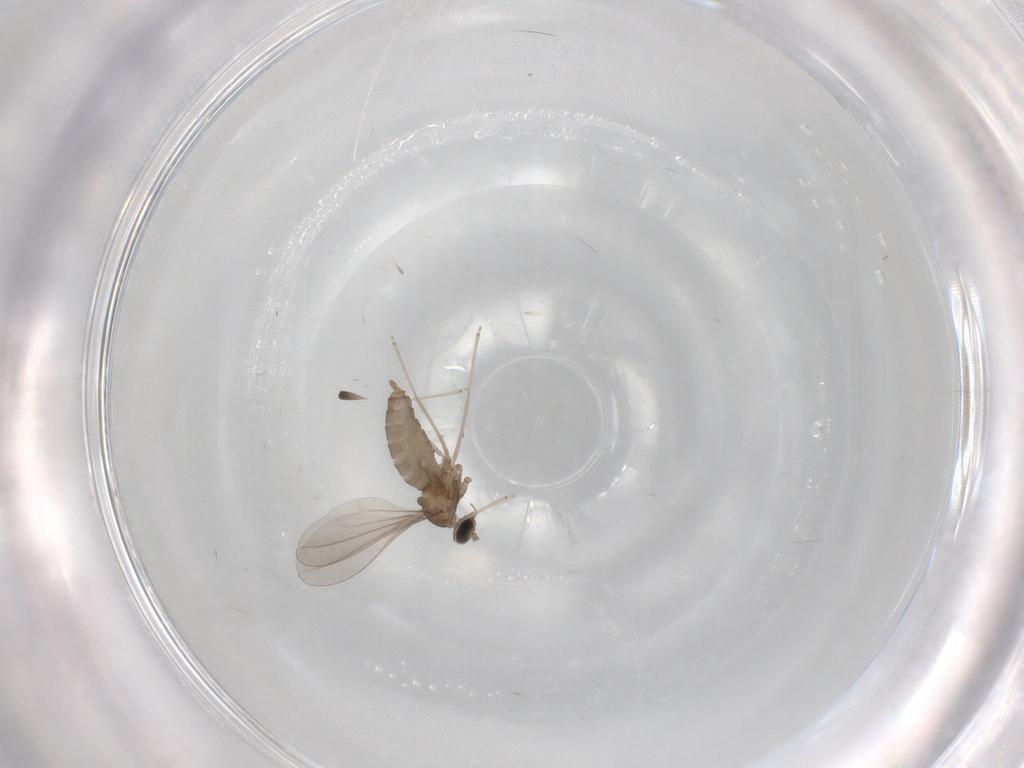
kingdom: Animalia
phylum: Arthropoda
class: Insecta
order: Diptera
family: Cecidomyiidae
